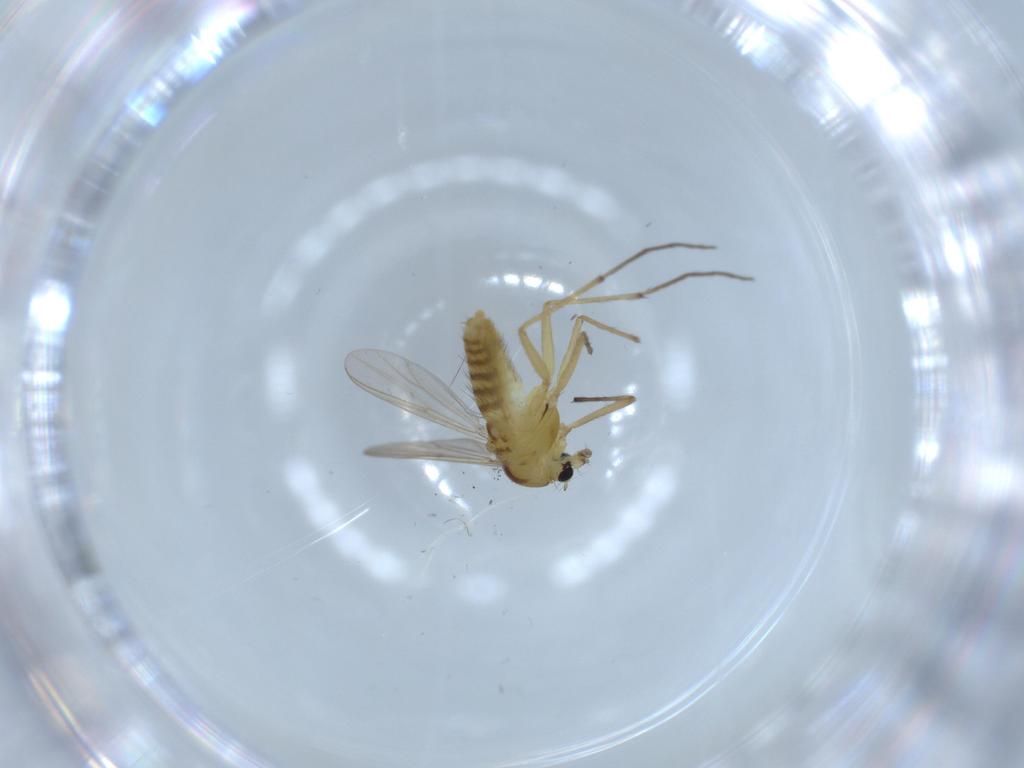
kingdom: Animalia
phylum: Arthropoda
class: Insecta
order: Diptera
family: Chironomidae
